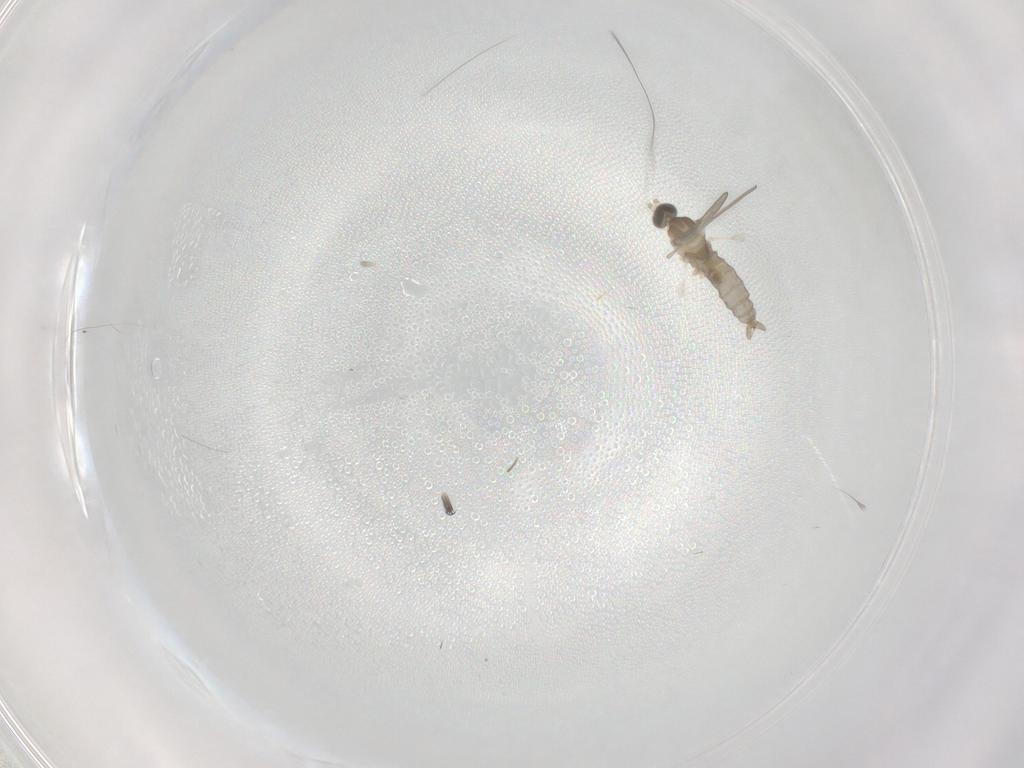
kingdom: Animalia
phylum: Arthropoda
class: Insecta
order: Diptera
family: Cecidomyiidae
